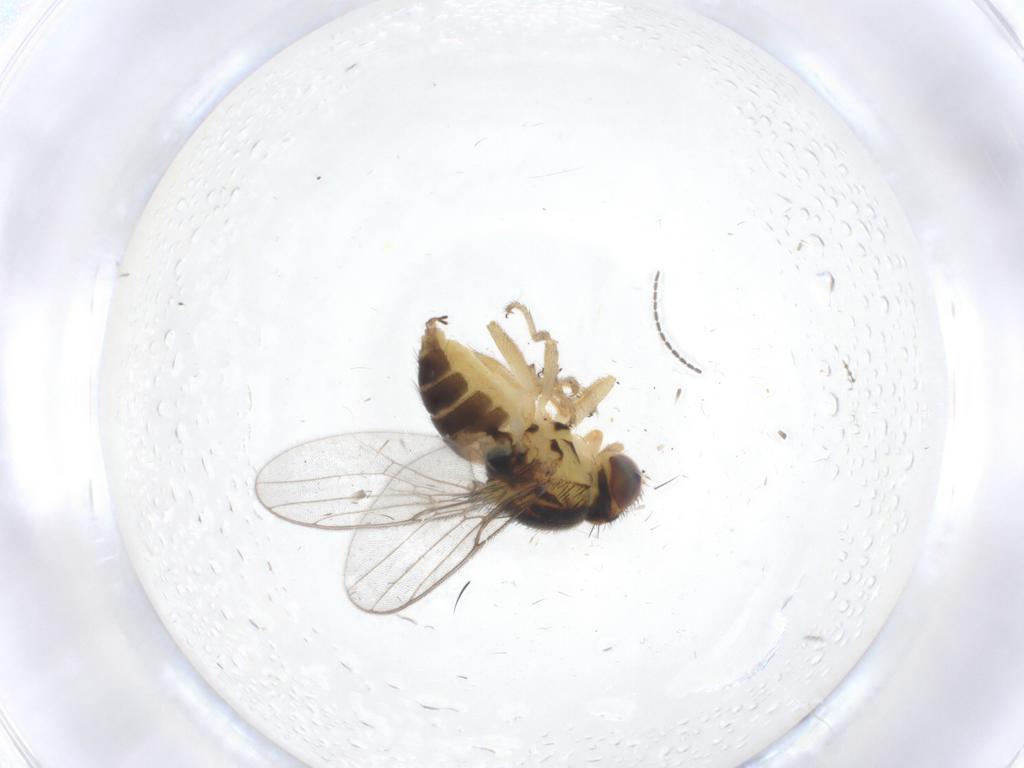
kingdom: Animalia
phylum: Arthropoda
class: Insecta
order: Diptera
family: Chloropidae
